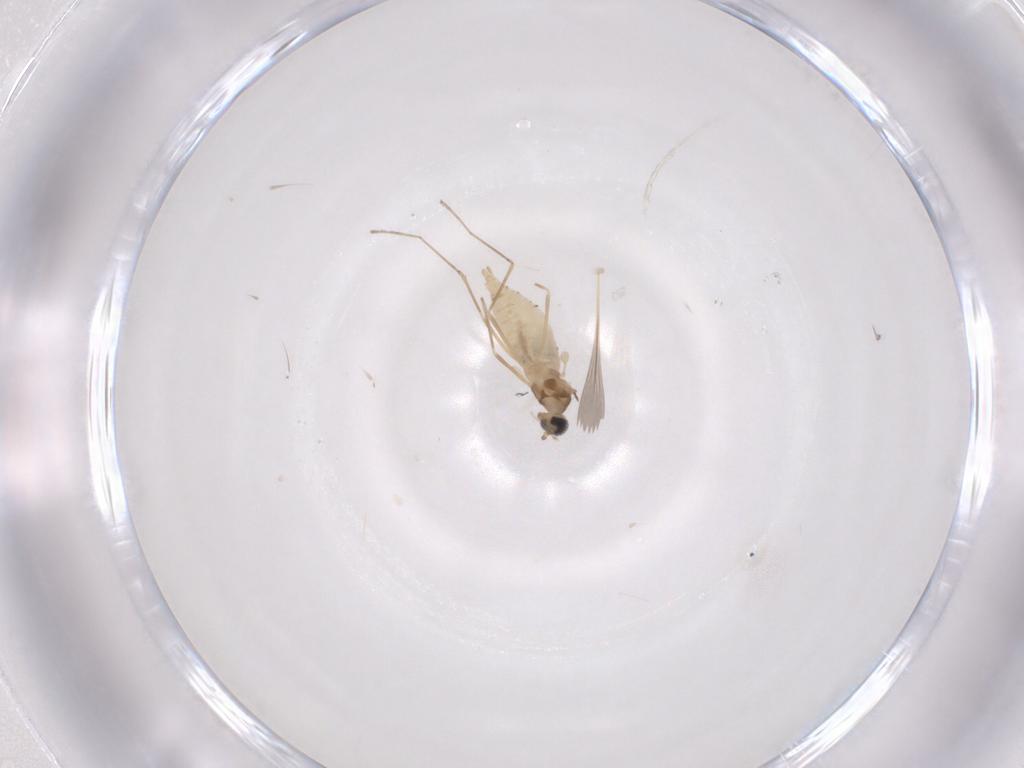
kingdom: Animalia
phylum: Arthropoda
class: Insecta
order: Diptera
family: Cecidomyiidae
